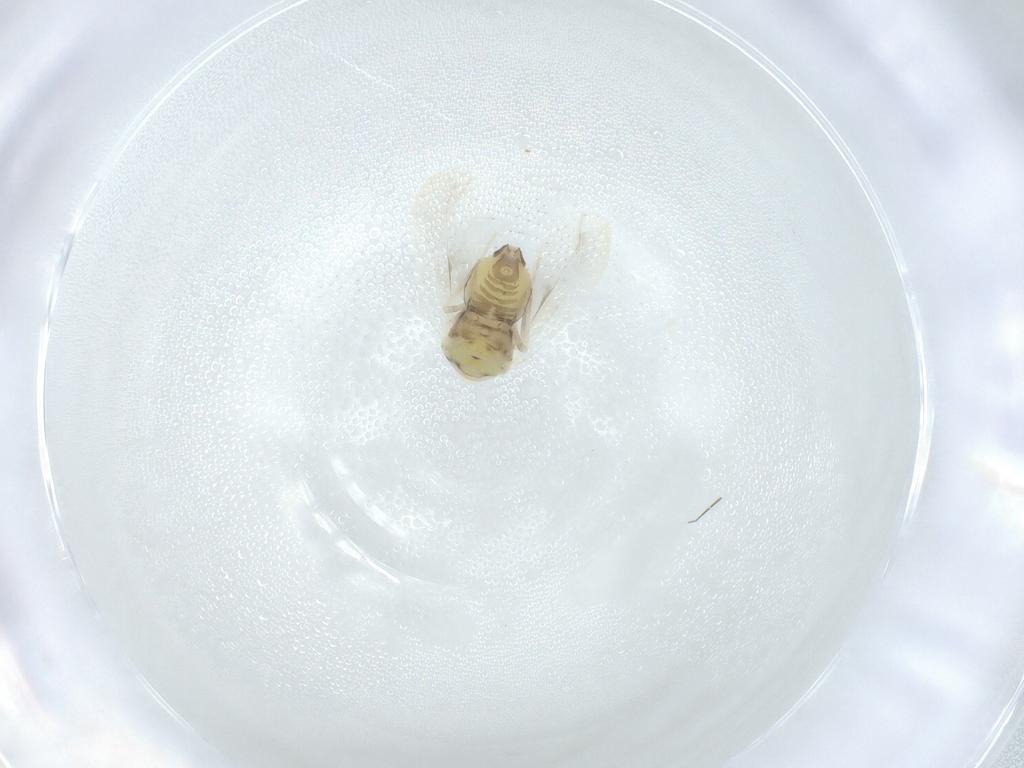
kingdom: Animalia
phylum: Arthropoda
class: Insecta
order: Hemiptera
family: Aleyrodidae
